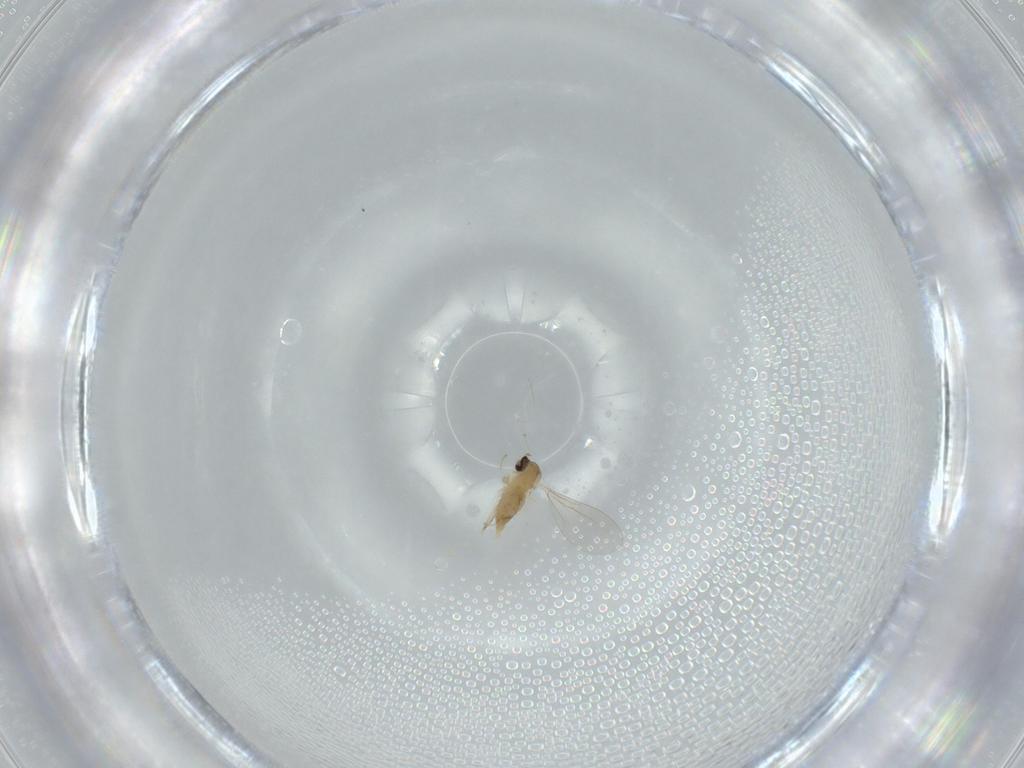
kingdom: Animalia
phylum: Arthropoda
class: Insecta
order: Diptera
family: Cecidomyiidae
